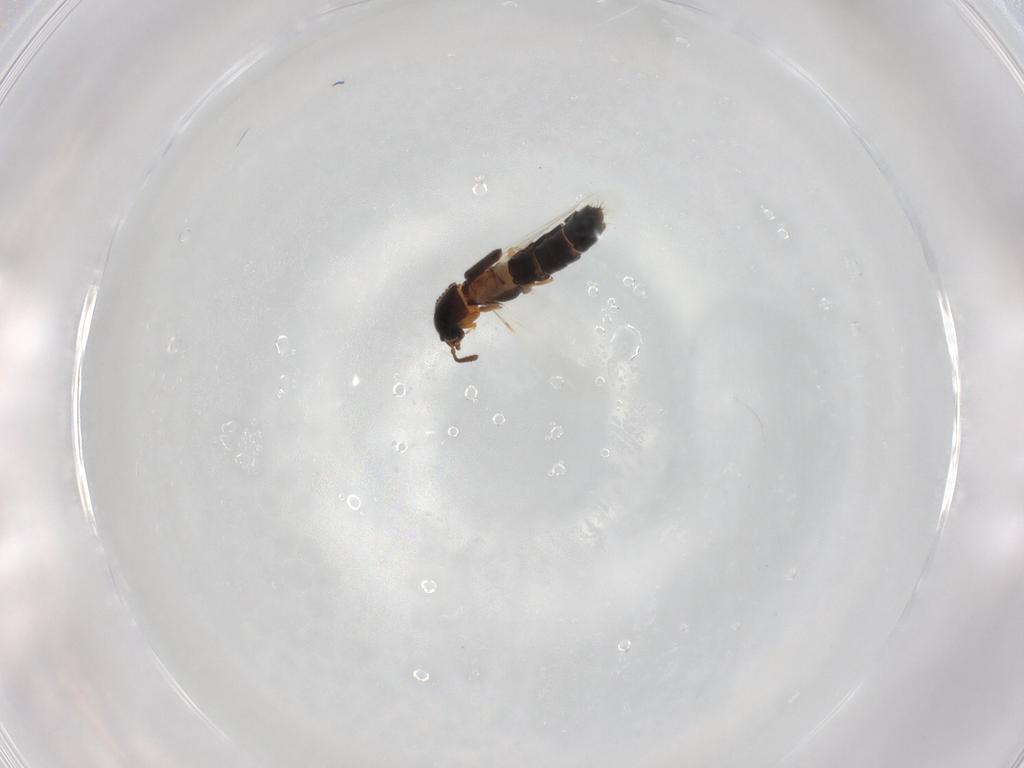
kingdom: Animalia
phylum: Arthropoda
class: Insecta
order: Coleoptera
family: Staphylinidae
